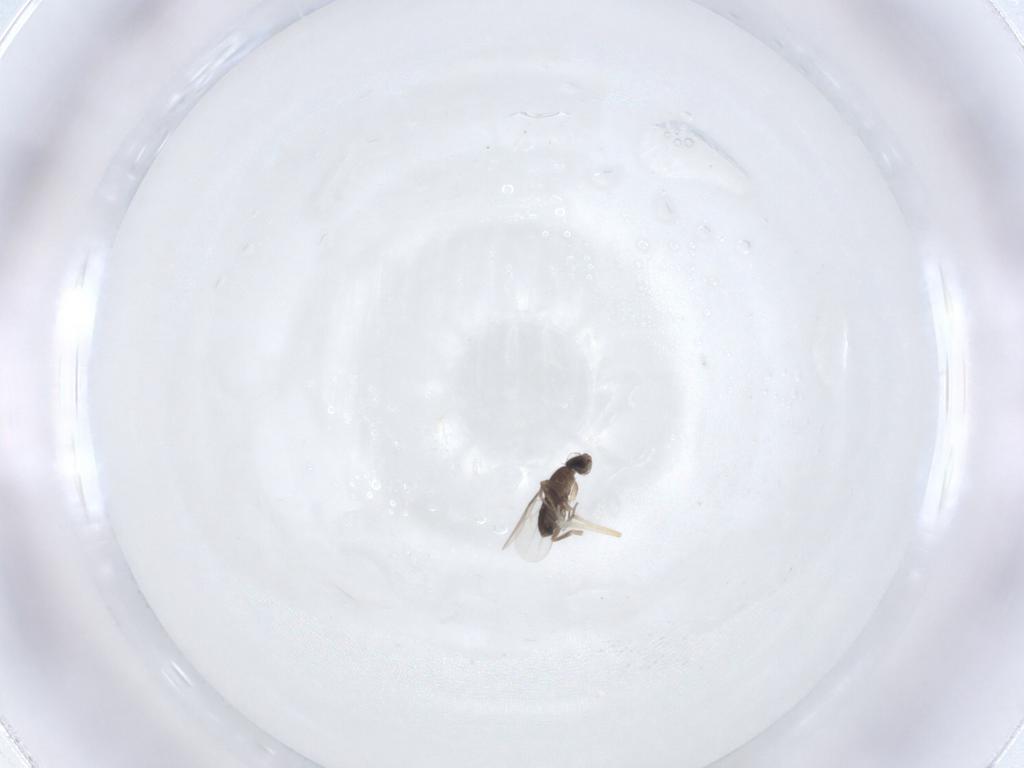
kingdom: Animalia
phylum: Arthropoda
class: Insecta
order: Diptera
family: Phoridae
